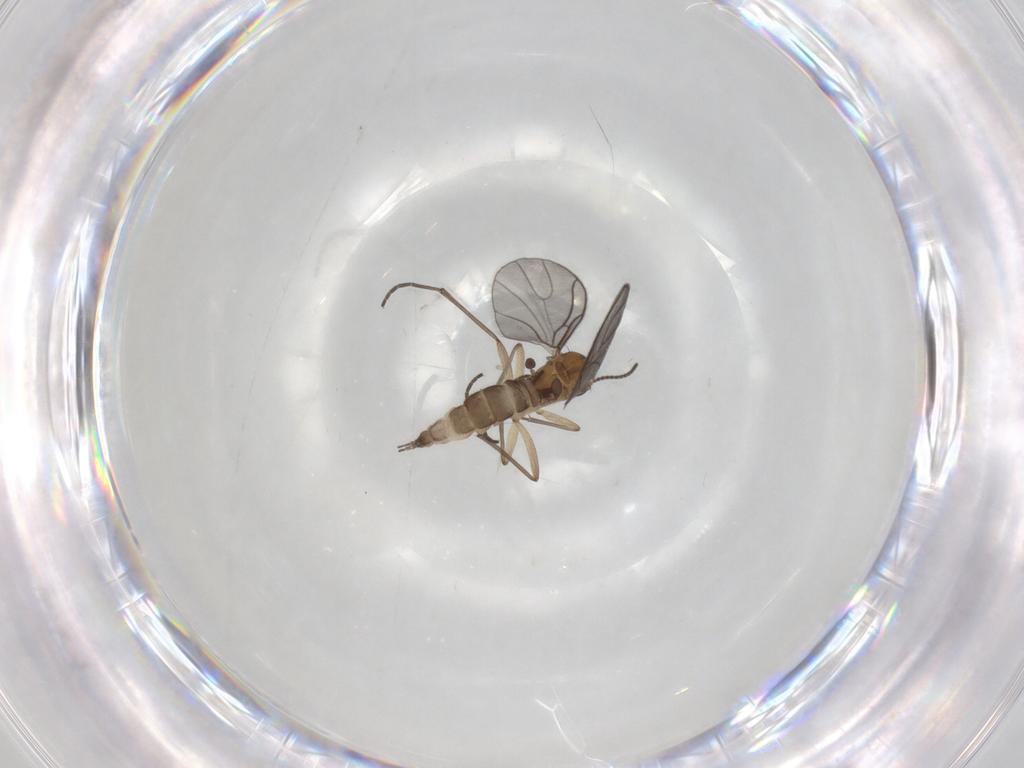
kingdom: Animalia
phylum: Arthropoda
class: Insecta
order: Diptera
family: Sciaridae
